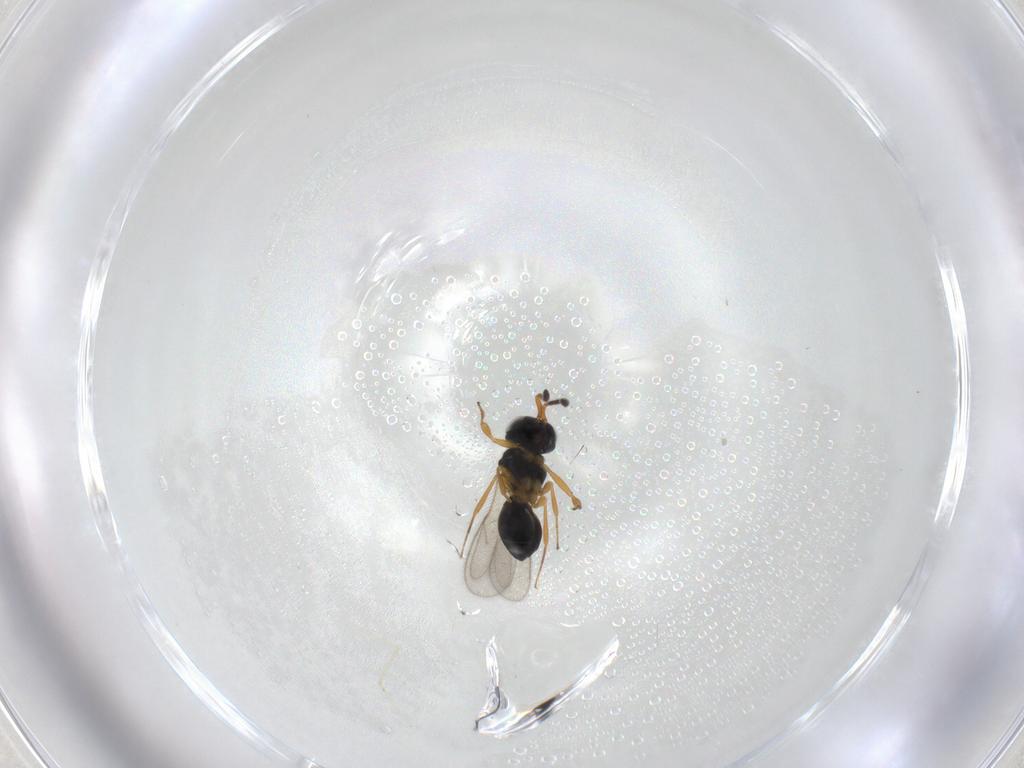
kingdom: Animalia
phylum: Arthropoda
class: Insecta
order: Hymenoptera
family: Scelionidae
